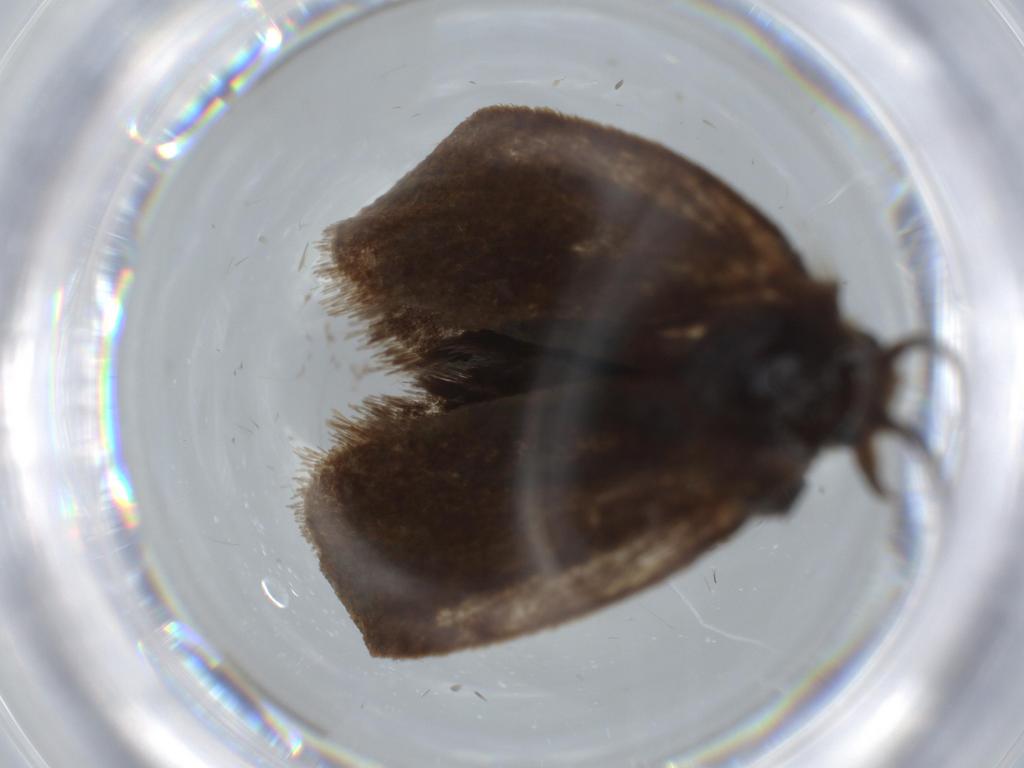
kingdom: Animalia
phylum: Arthropoda
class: Insecta
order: Lepidoptera
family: Tineidae
